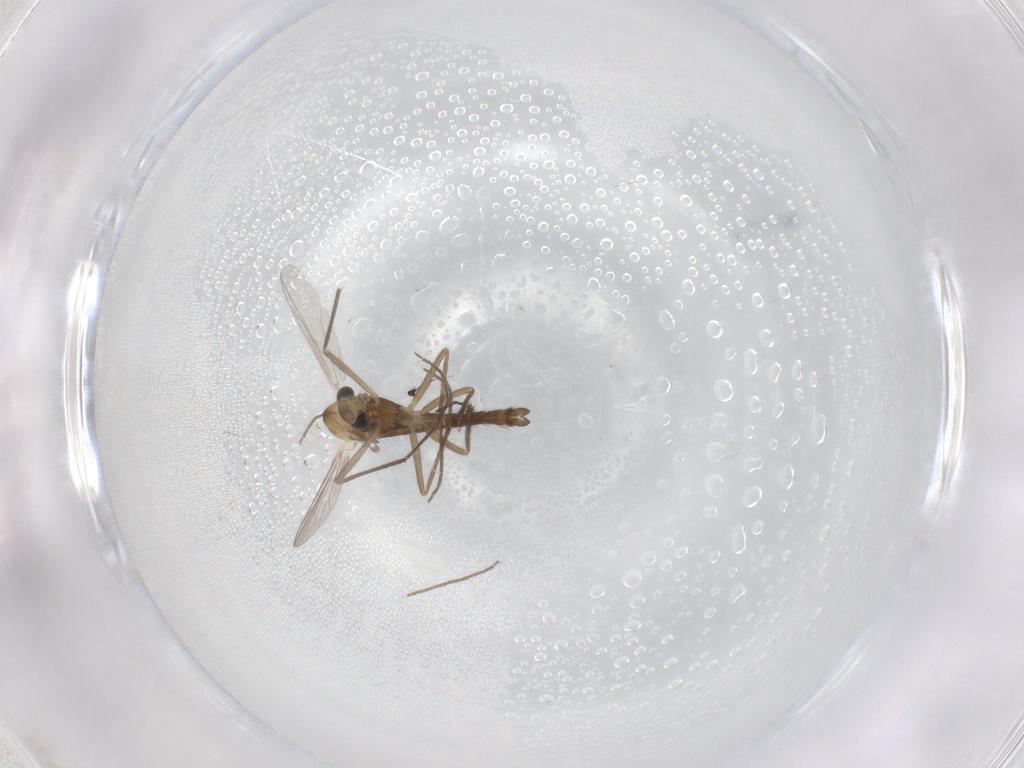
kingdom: Animalia
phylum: Arthropoda
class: Insecta
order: Diptera
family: Chironomidae
